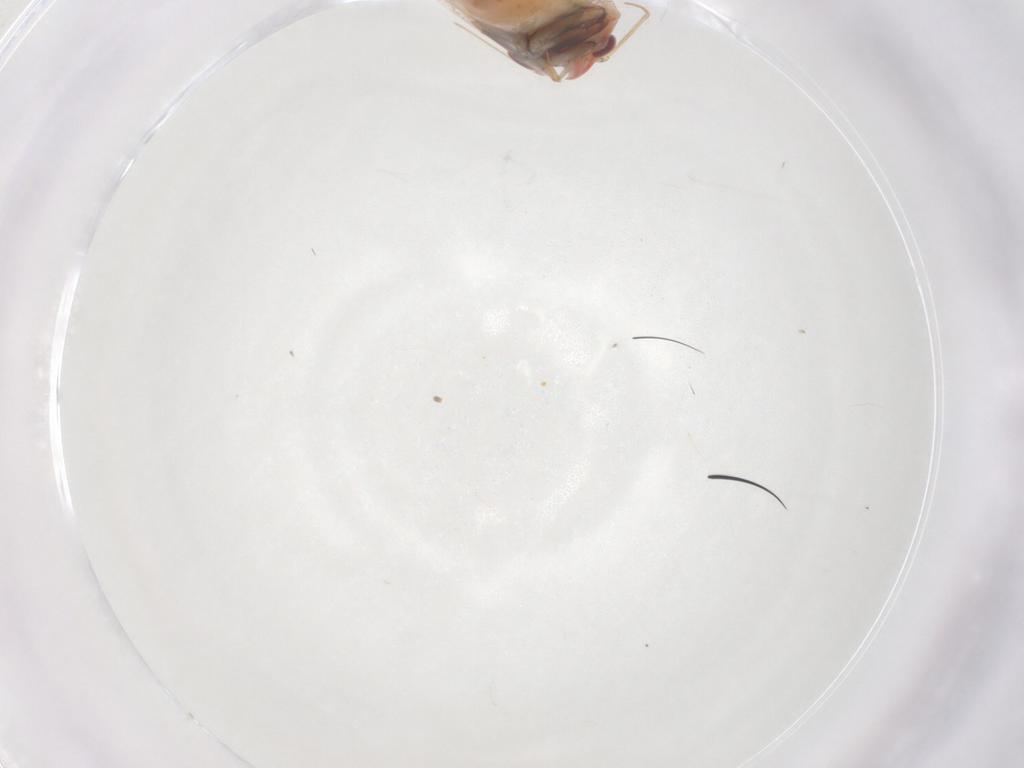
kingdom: Animalia
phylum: Arthropoda
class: Insecta
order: Hemiptera
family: Miridae
